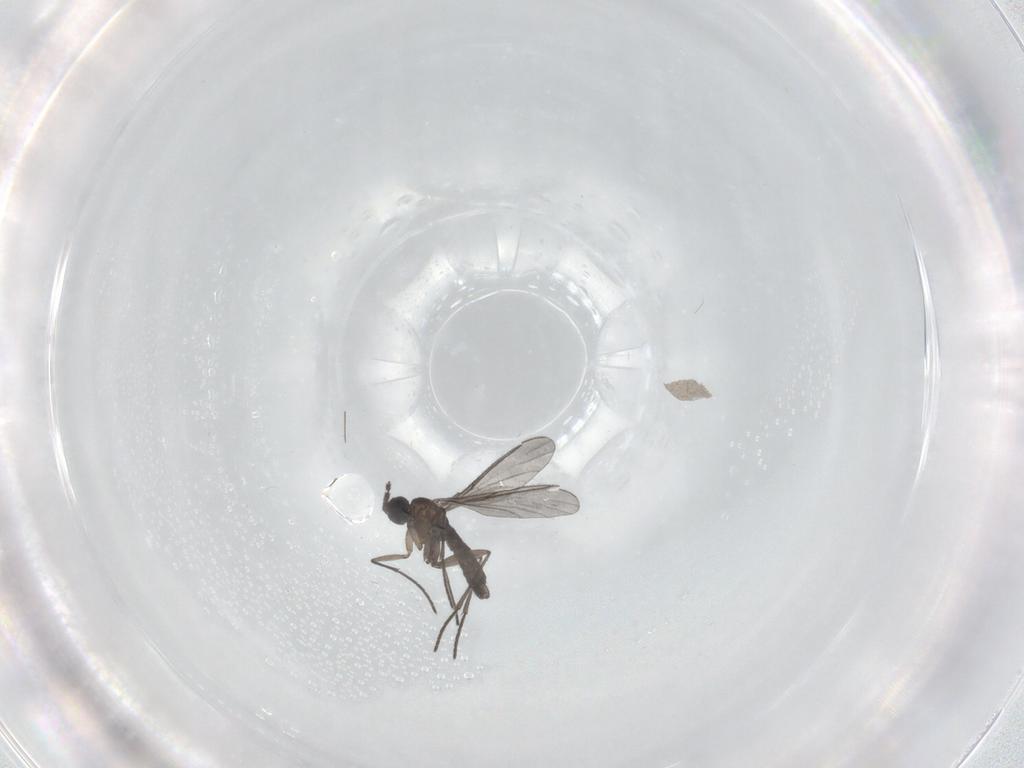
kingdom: Animalia
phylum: Arthropoda
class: Insecta
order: Diptera
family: Chironomidae
